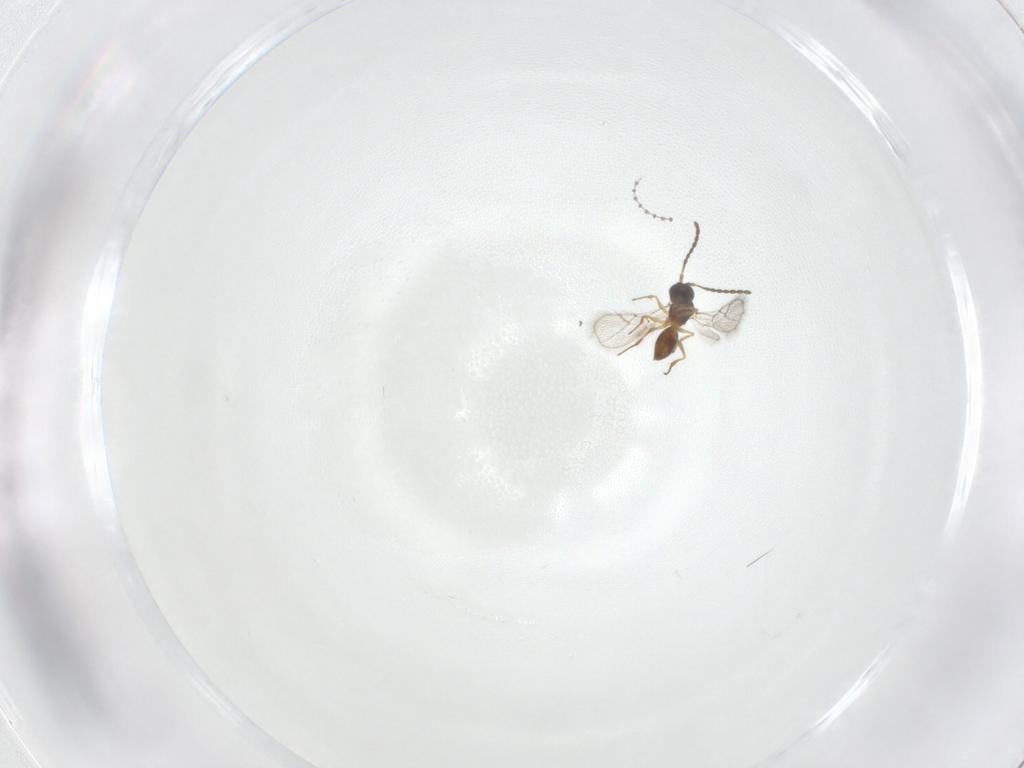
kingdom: Animalia
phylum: Arthropoda
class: Insecta
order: Hymenoptera
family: Figitidae
